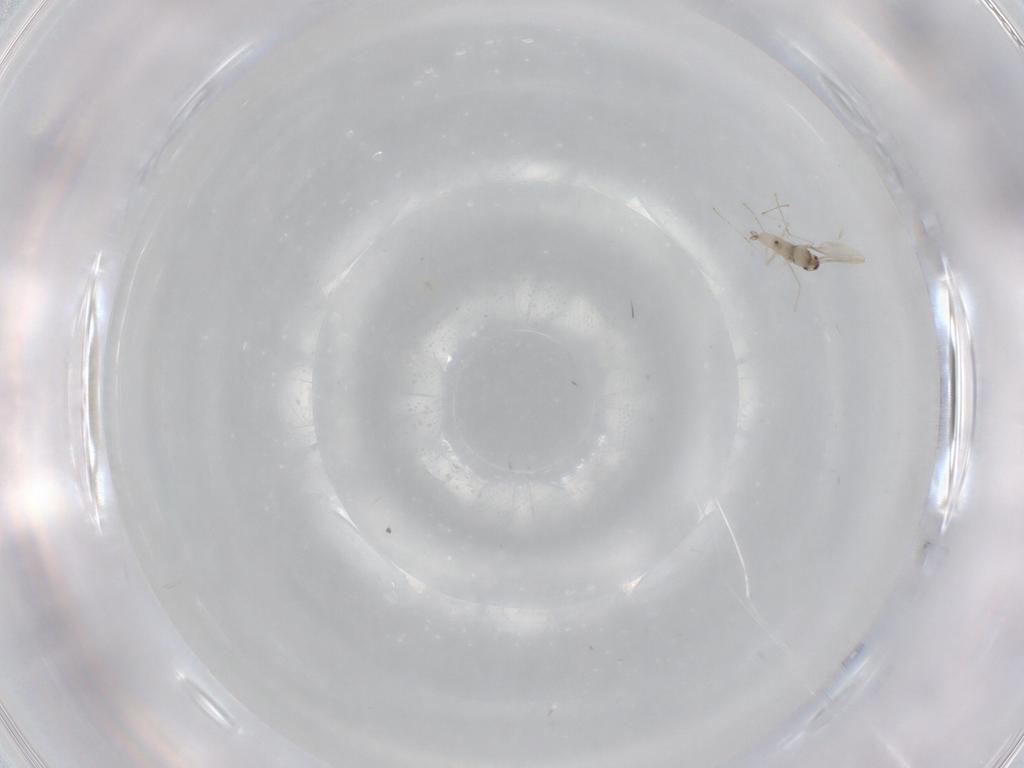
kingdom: Animalia
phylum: Arthropoda
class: Insecta
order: Diptera
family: Cecidomyiidae
